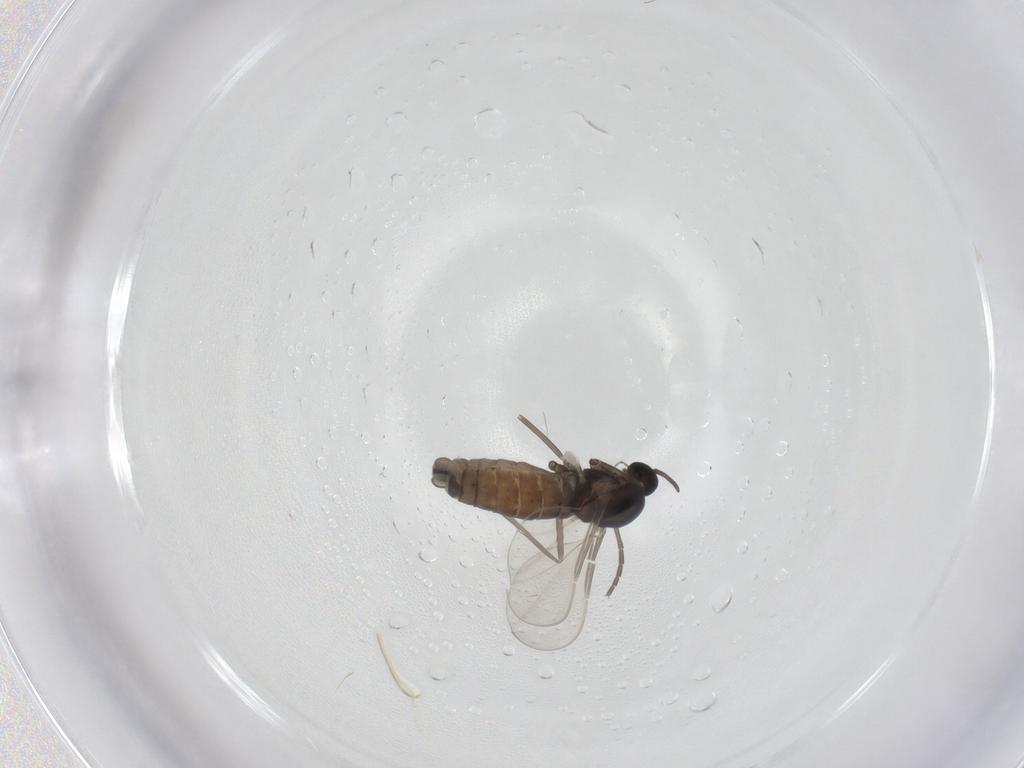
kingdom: Animalia
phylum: Arthropoda
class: Insecta
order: Diptera
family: Cecidomyiidae
